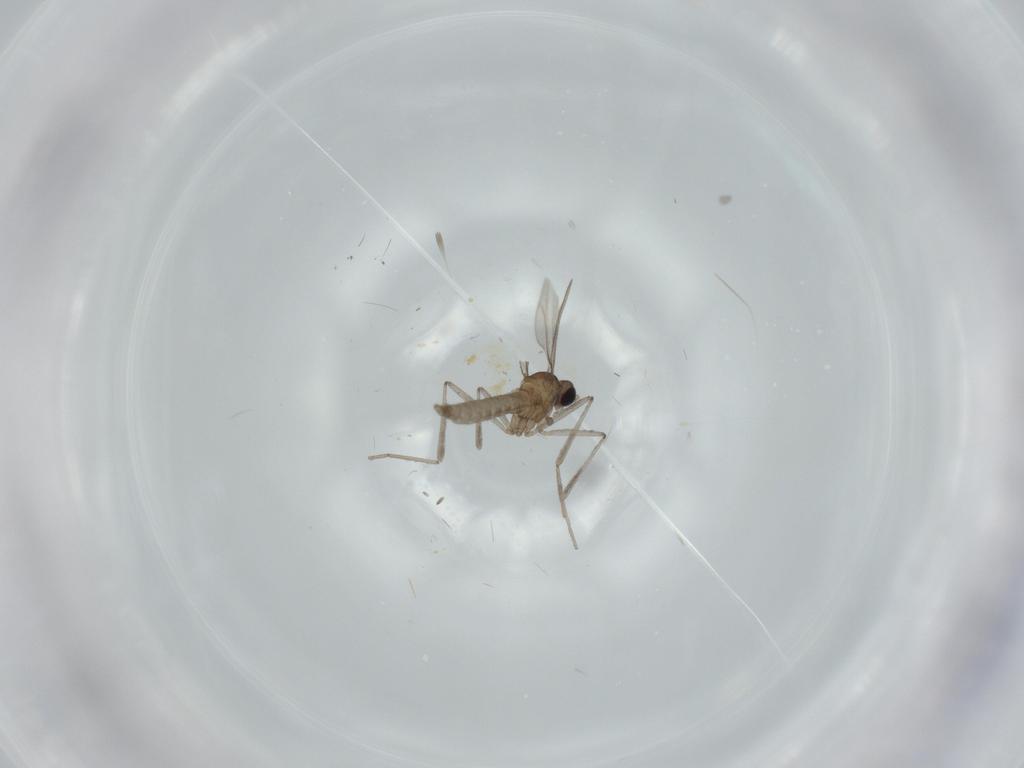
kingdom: Animalia
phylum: Arthropoda
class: Insecta
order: Diptera
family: Cecidomyiidae
